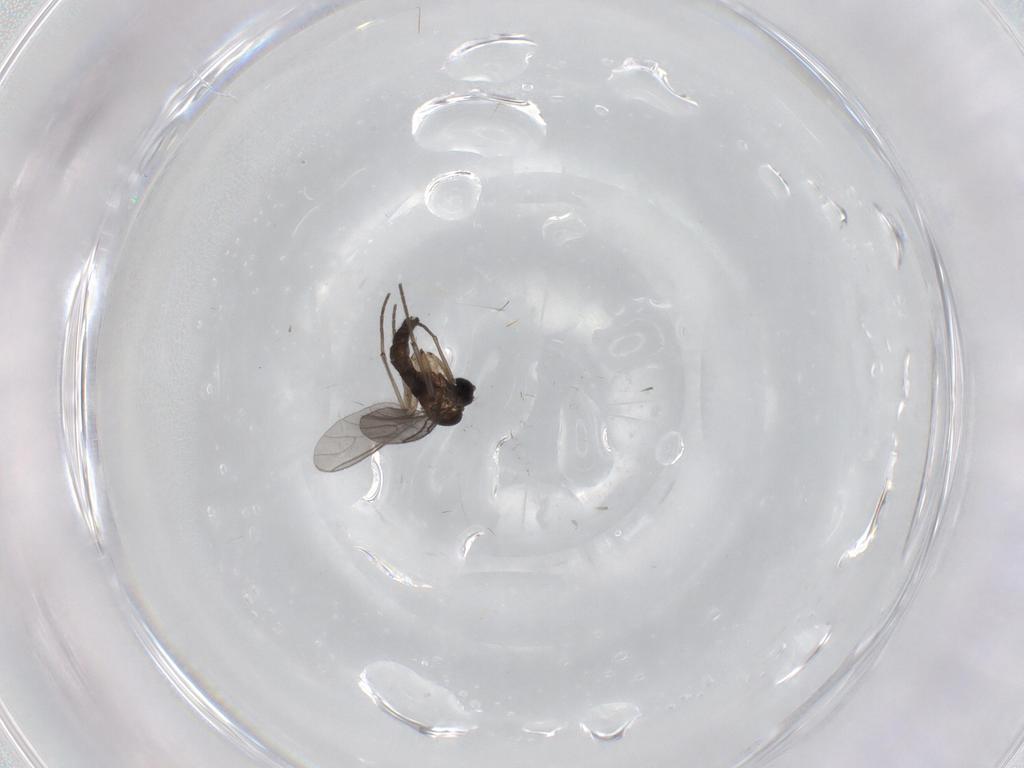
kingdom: Animalia
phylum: Arthropoda
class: Insecta
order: Diptera
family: Sciaridae
